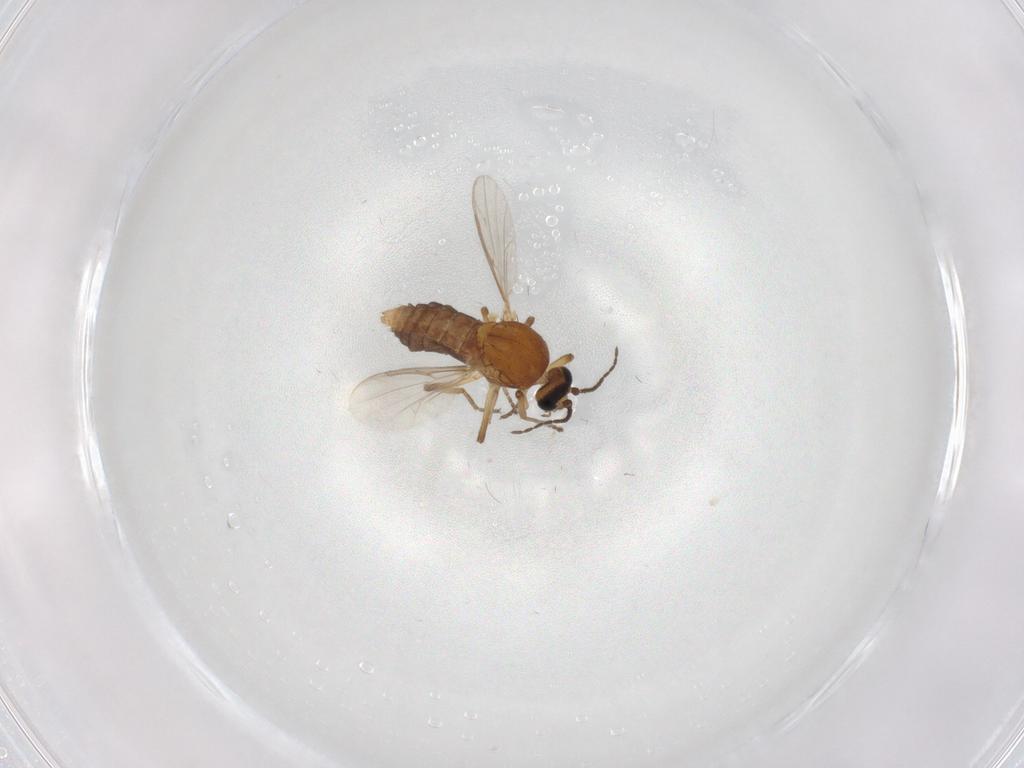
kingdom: Animalia
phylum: Arthropoda
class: Insecta
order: Diptera
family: Ceratopogonidae
